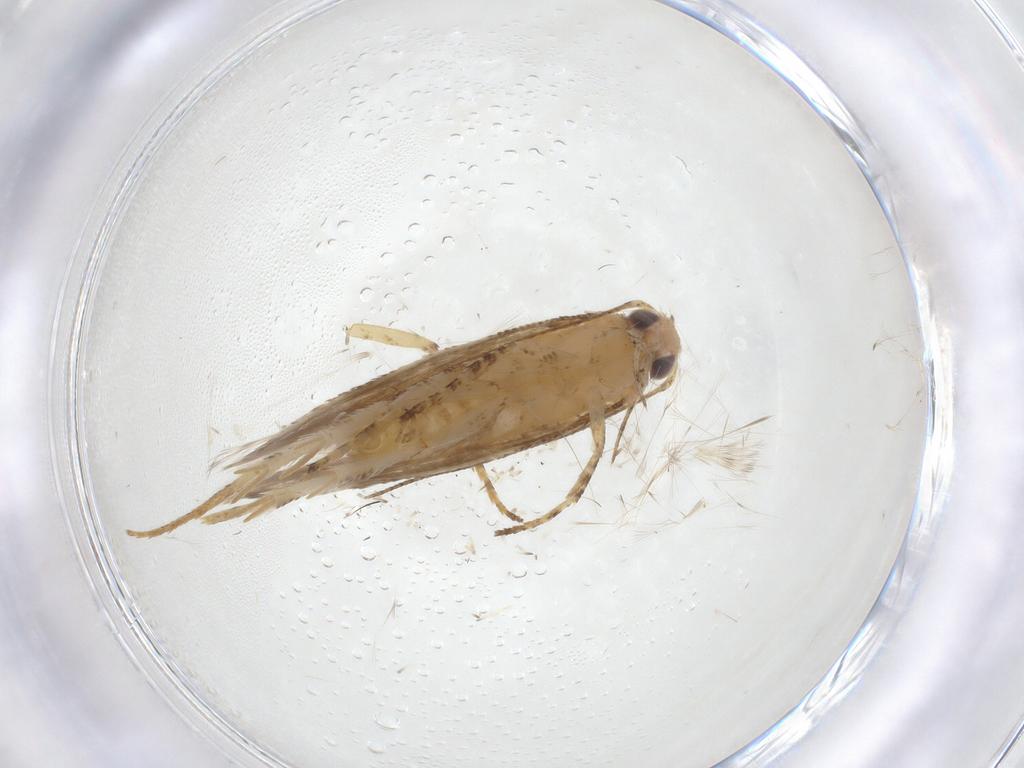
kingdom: Animalia
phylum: Arthropoda
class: Insecta
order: Lepidoptera
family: Gelechiidae
